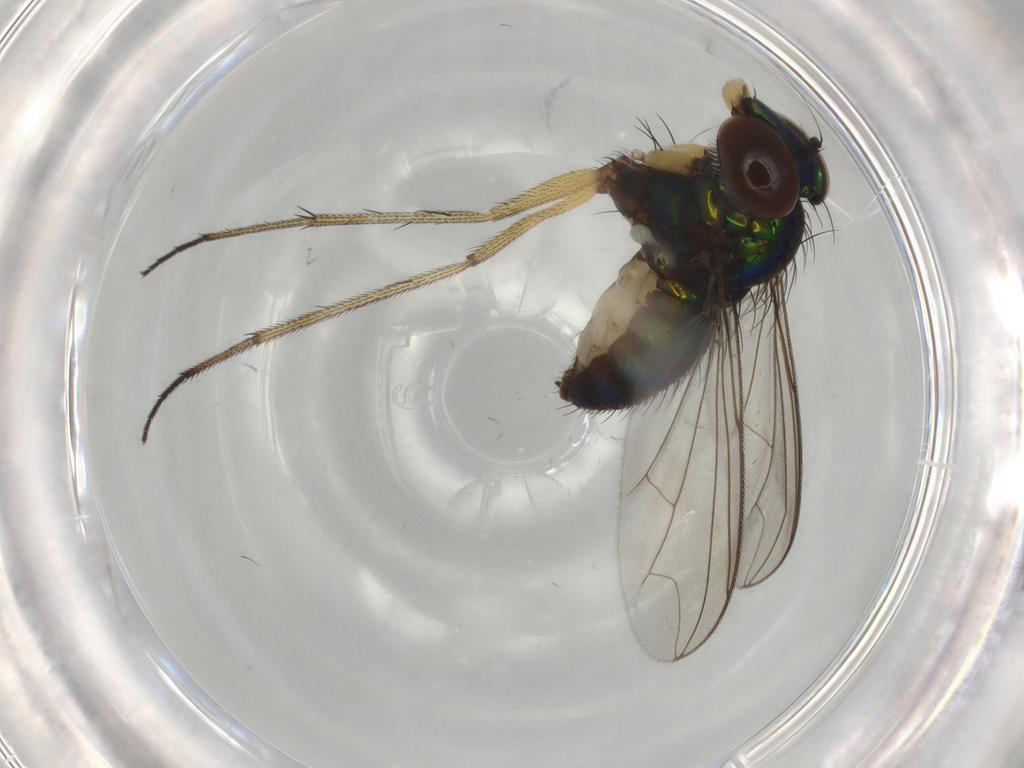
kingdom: Animalia
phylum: Arthropoda
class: Insecta
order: Diptera
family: Dolichopodidae
